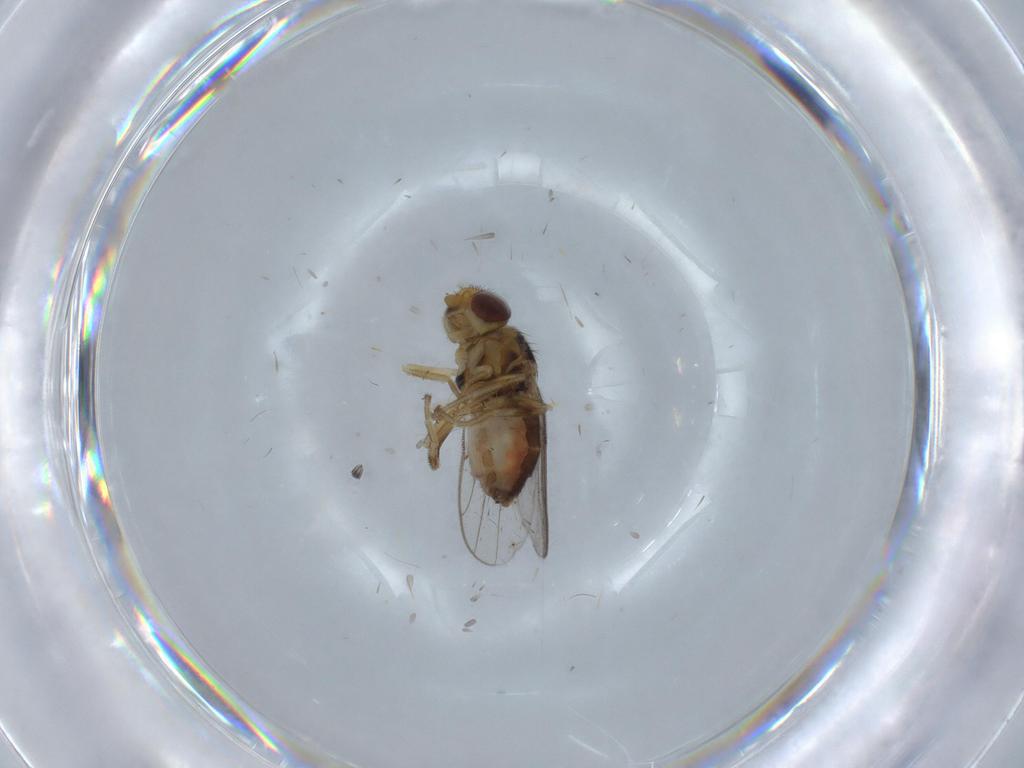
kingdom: Animalia
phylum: Arthropoda
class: Insecta
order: Diptera
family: Chloropidae
